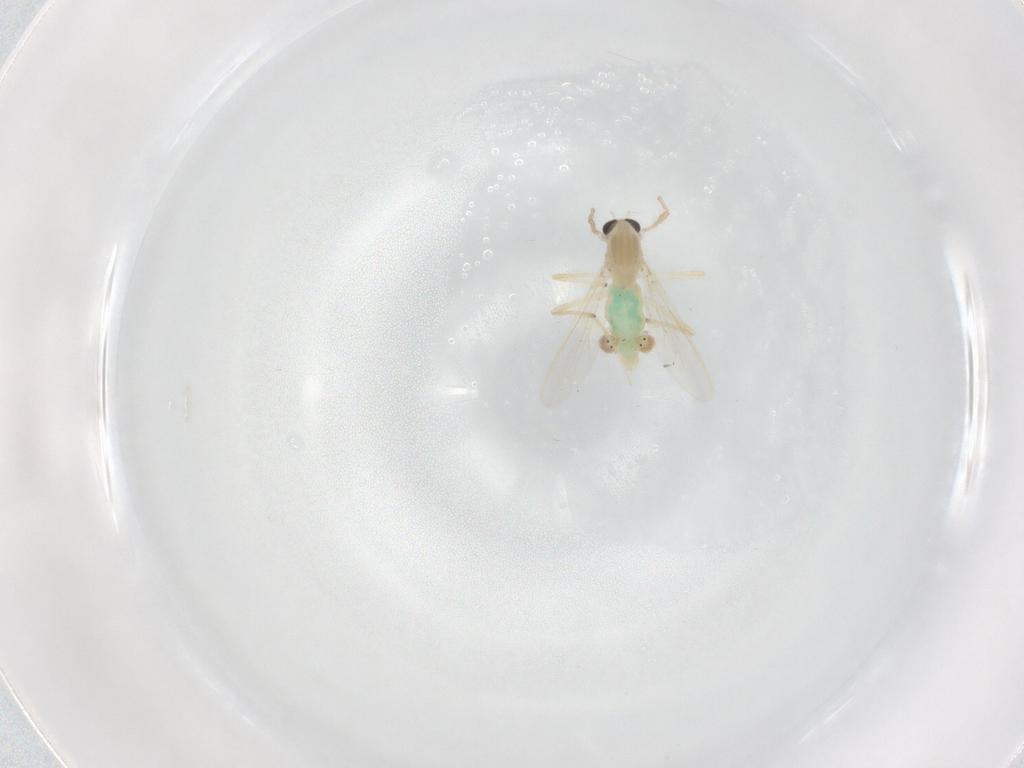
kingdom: Animalia
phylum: Arthropoda
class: Insecta
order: Diptera
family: Chironomidae
